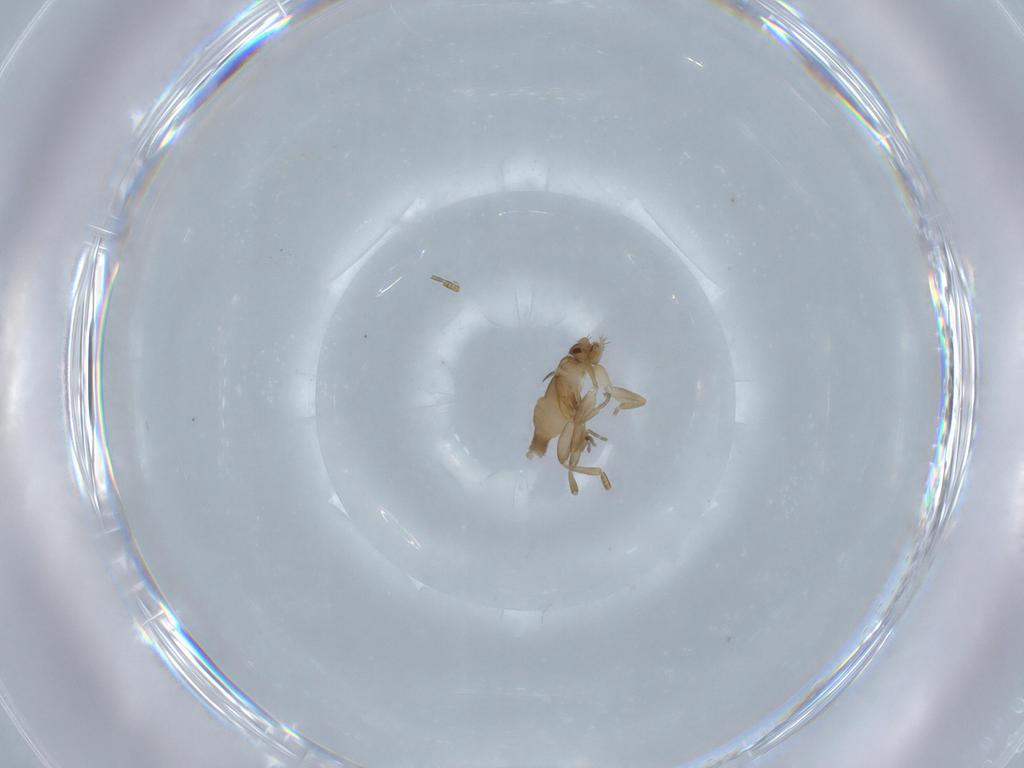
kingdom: Animalia
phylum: Arthropoda
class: Insecta
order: Diptera
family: Phoridae
